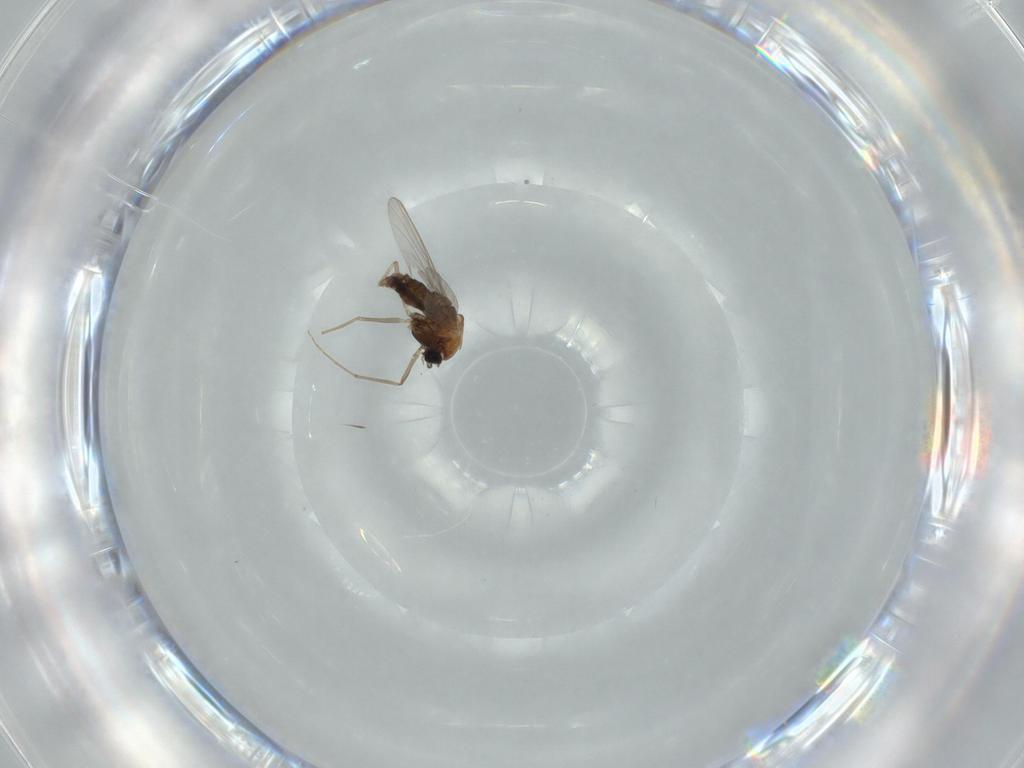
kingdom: Animalia
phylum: Arthropoda
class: Insecta
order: Diptera
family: Chironomidae
